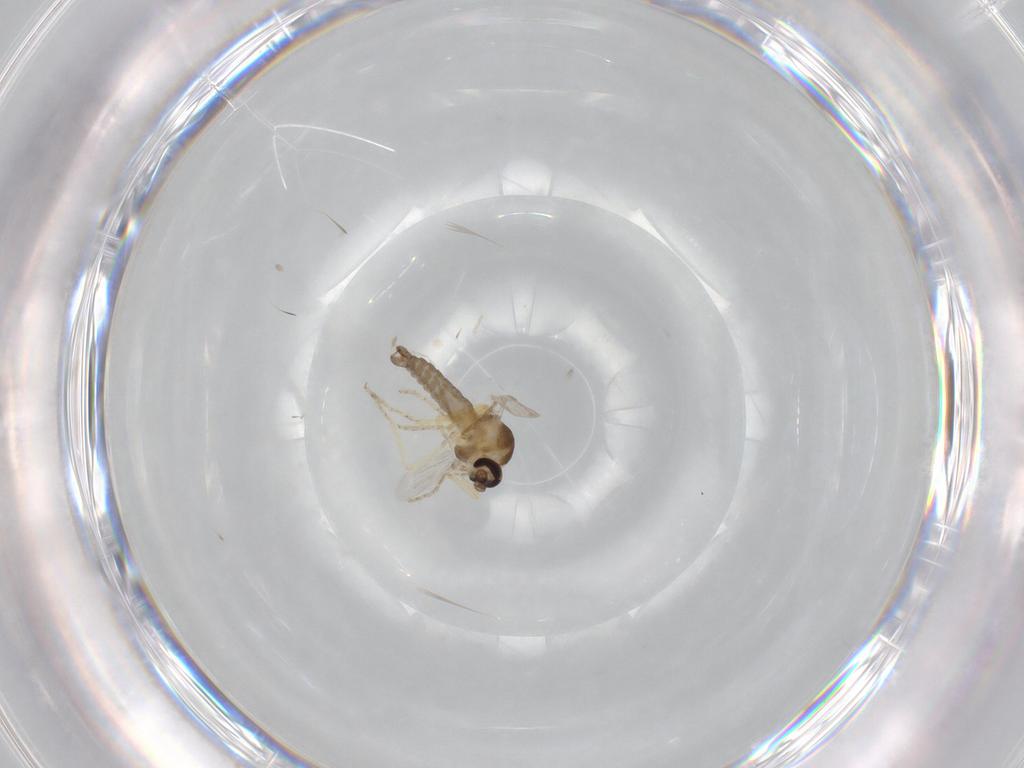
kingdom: Animalia
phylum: Arthropoda
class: Insecta
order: Diptera
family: Ceratopogonidae
